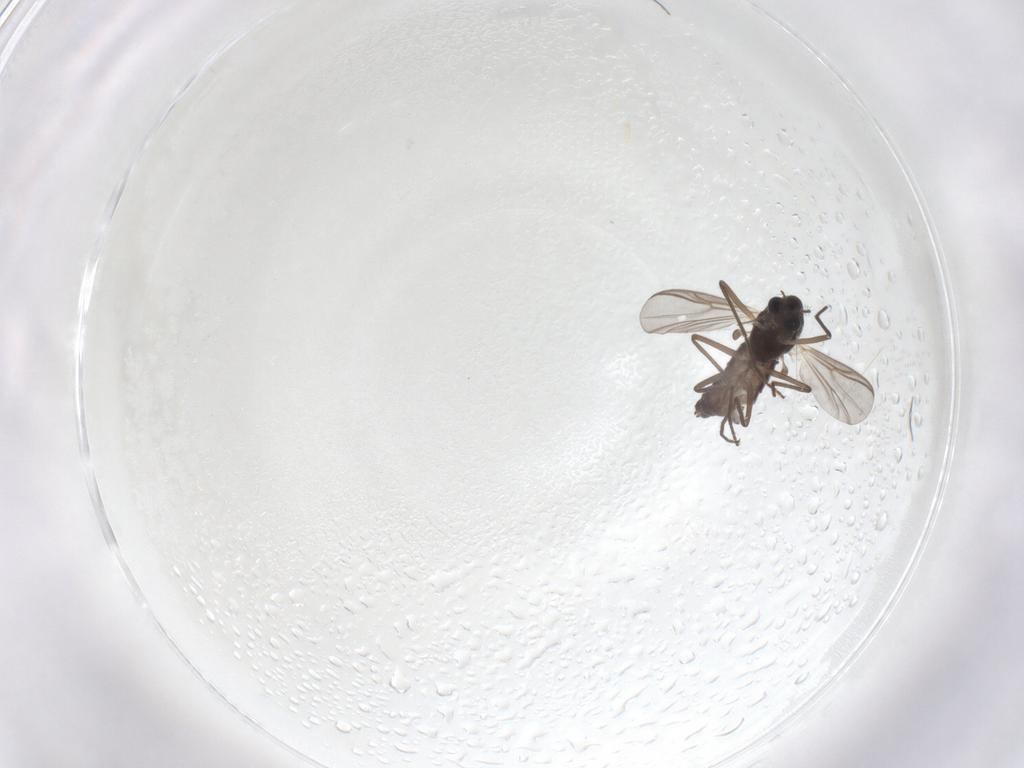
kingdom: Animalia
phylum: Arthropoda
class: Insecta
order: Diptera
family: Chironomidae
